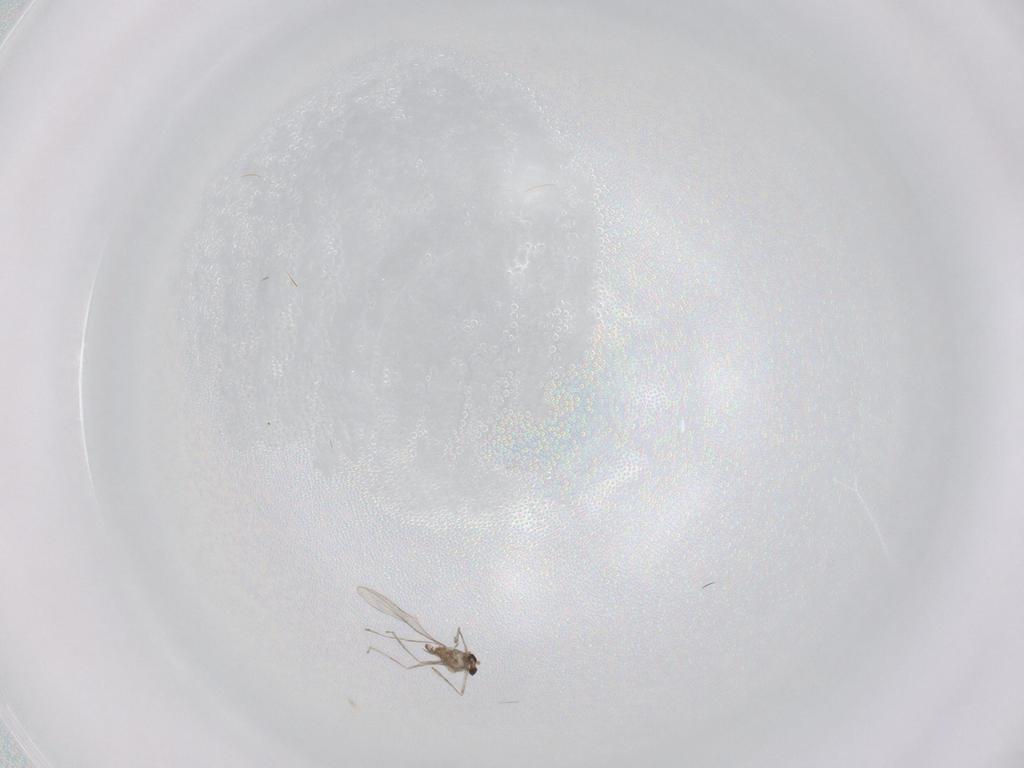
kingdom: Animalia
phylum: Arthropoda
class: Insecta
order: Diptera
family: Cecidomyiidae
